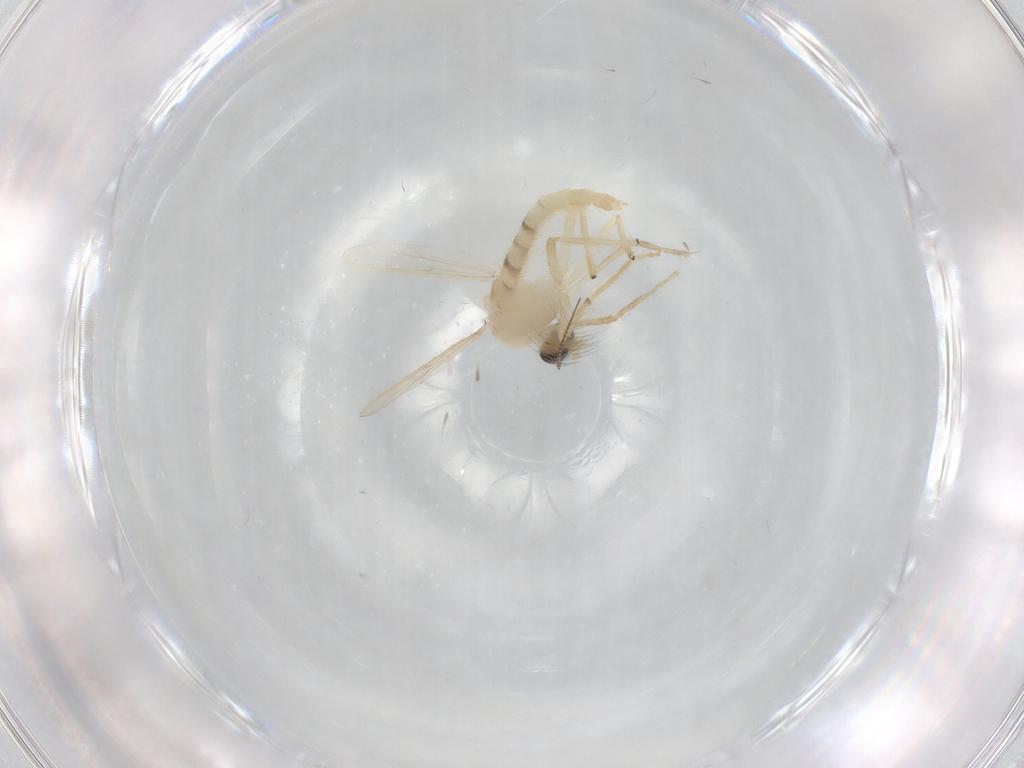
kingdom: Animalia
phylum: Arthropoda
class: Insecta
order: Diptera
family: Chironomidae
